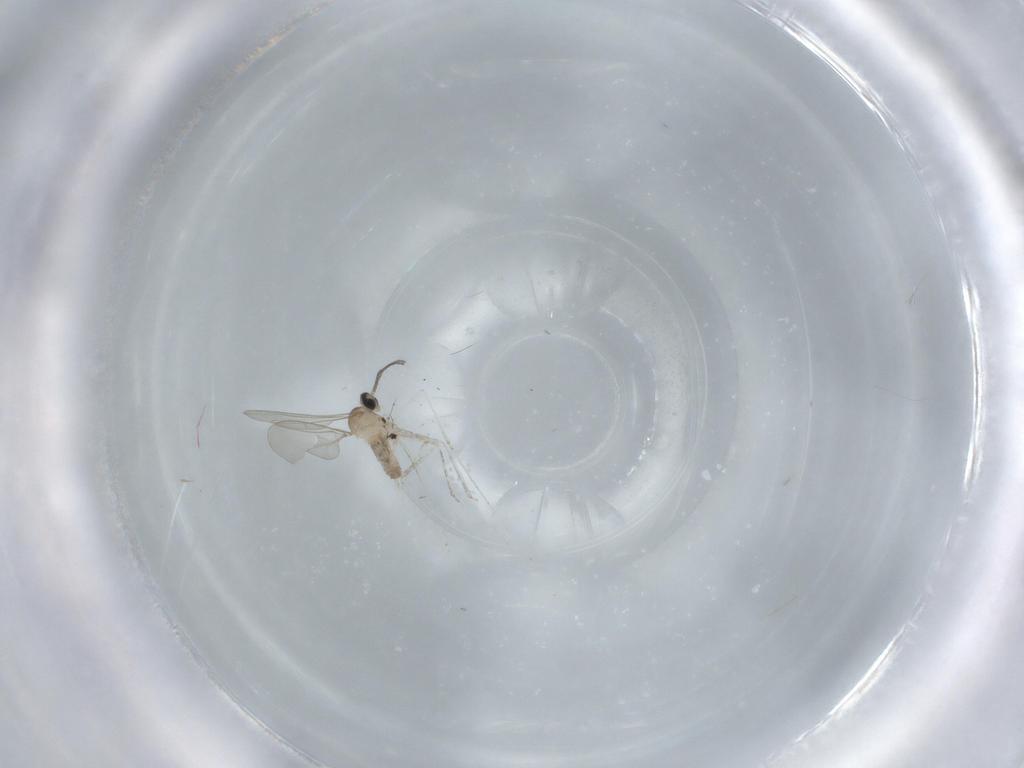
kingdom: Animalia
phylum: Arthropoda
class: Insecta
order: Diptera
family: Cecidomyiidae
